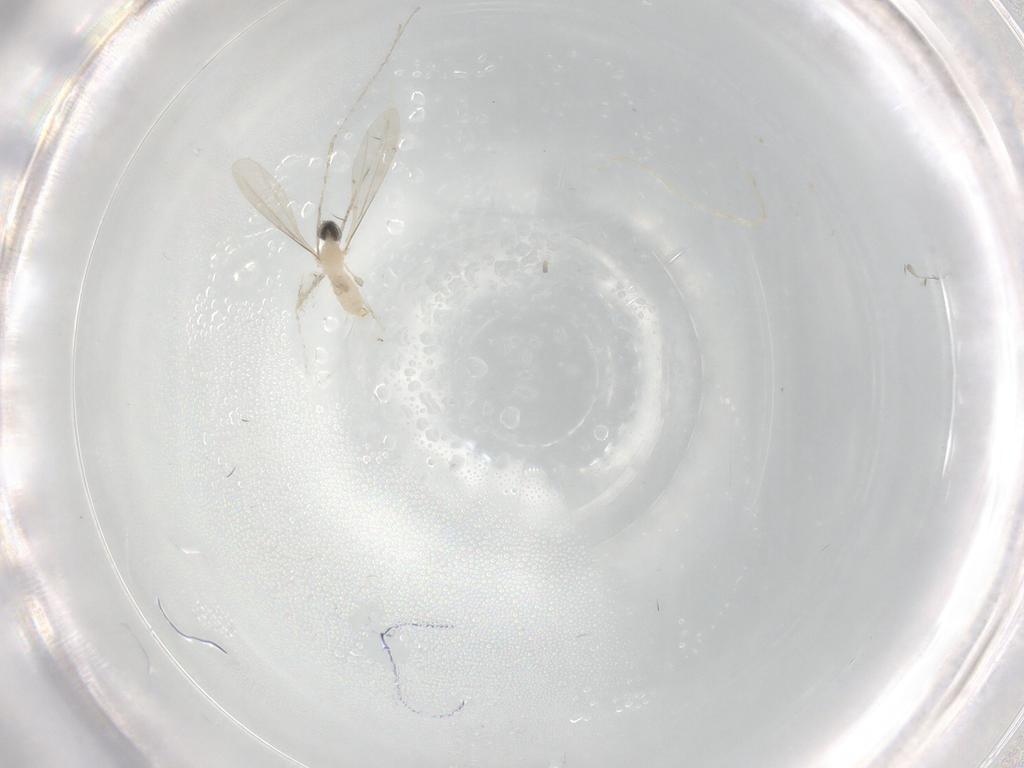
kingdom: Animalia
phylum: Arthropoda
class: Insecta
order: Diptera
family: Cecidomyiidae
